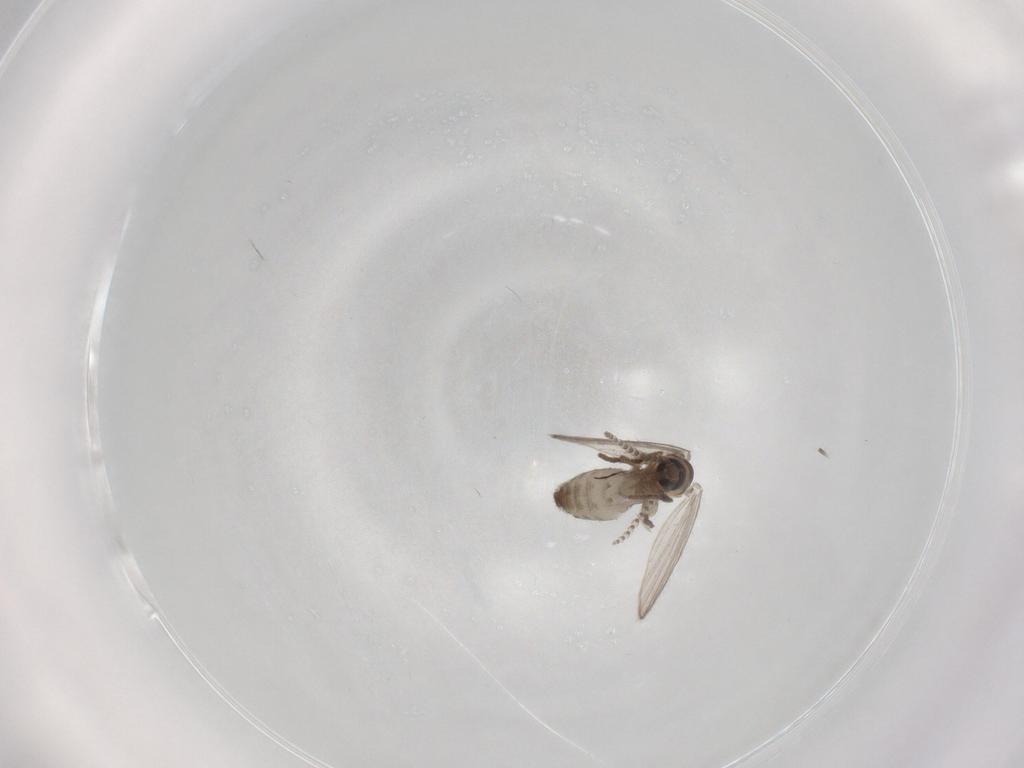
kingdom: Animalia
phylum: Arthropoda
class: Insecta
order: Diptera
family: Psychodidae
